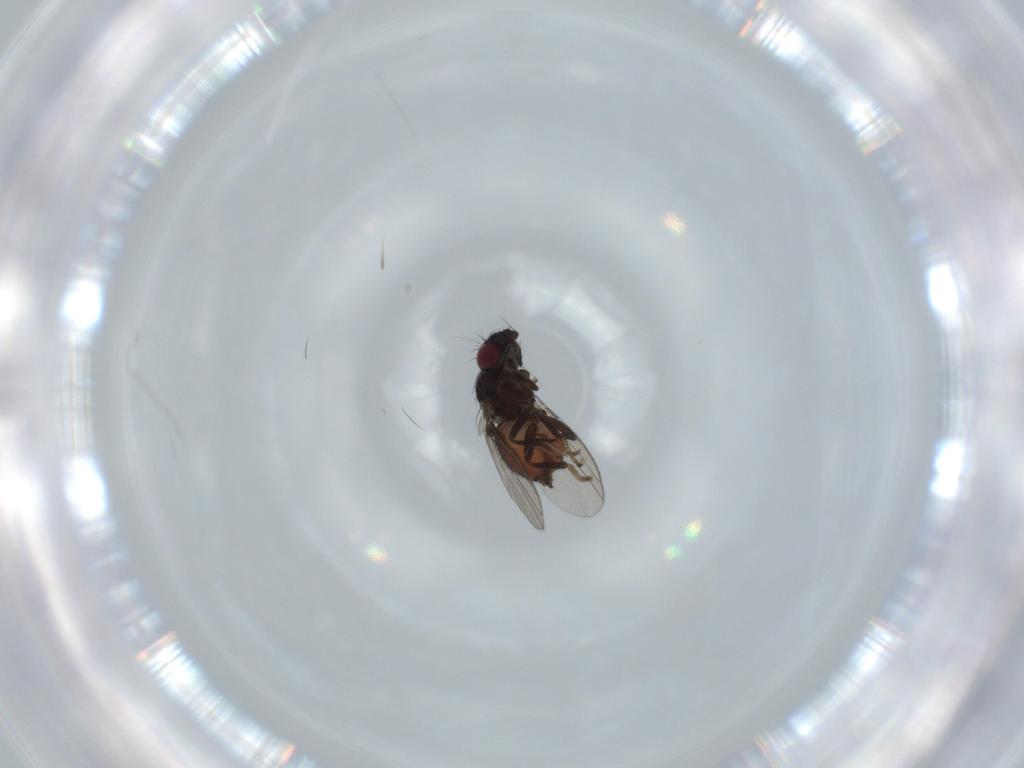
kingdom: Animalia
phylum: Arthropoda
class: Insecta
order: Diptera
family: Milichiidae
